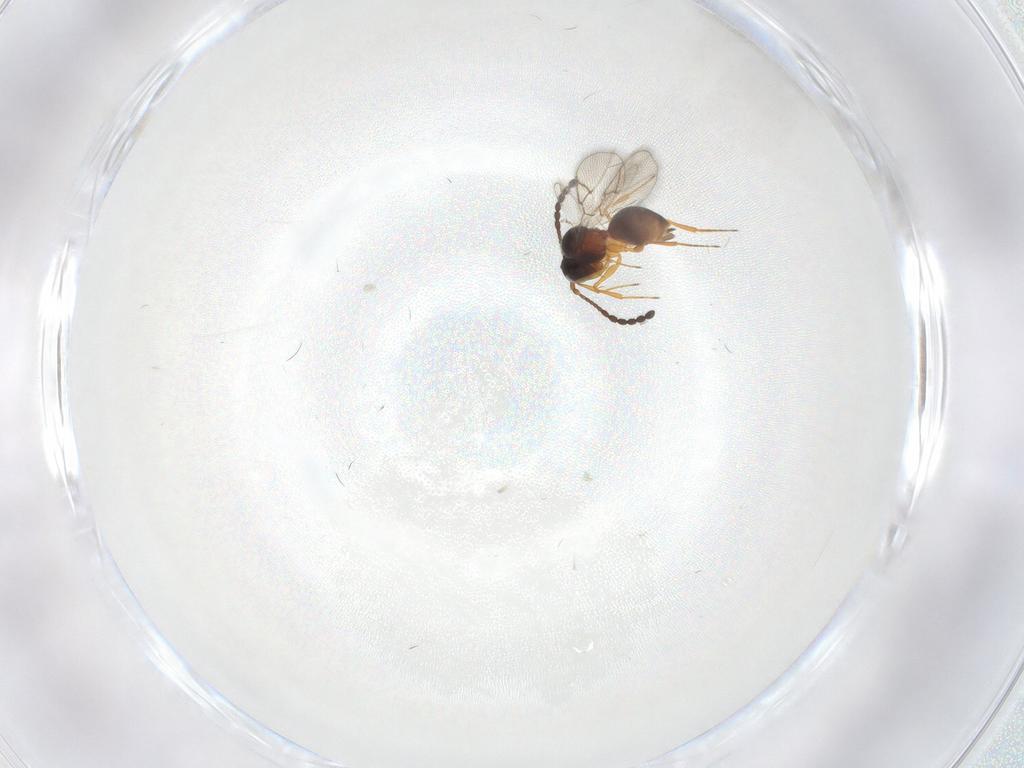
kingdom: Animalia
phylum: Arthropoda
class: Insecta
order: Hymenoptera
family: Figitidae
